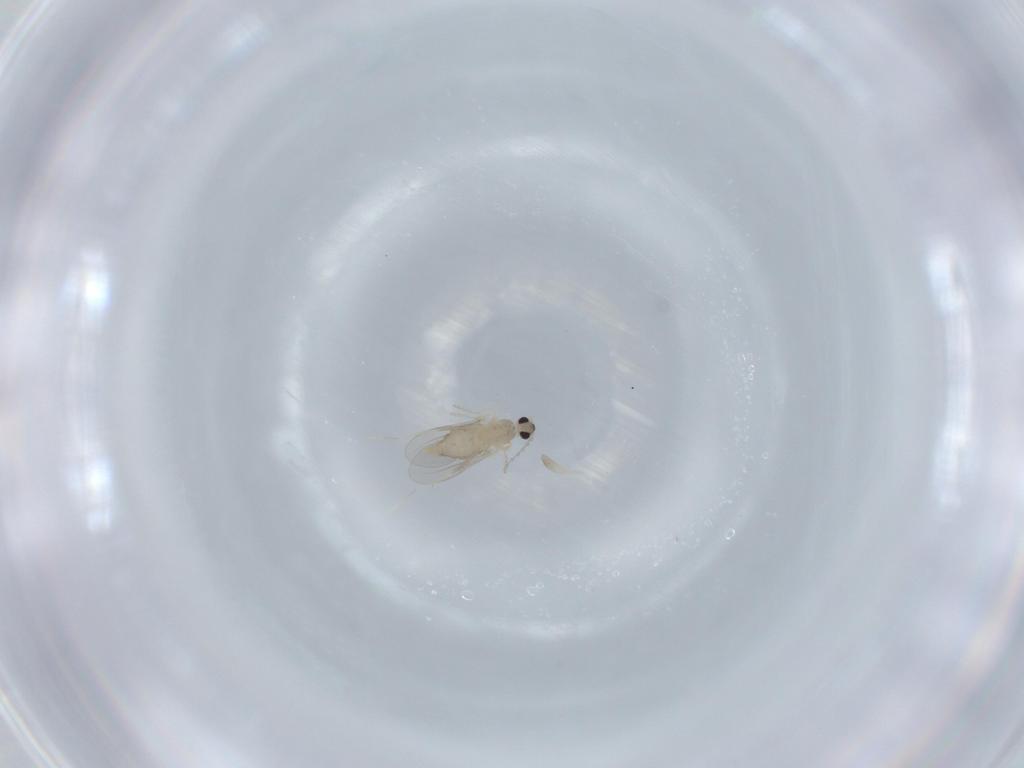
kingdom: Animalia
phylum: Arthropoda
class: Insecta
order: Diptera
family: Cecidomyiidae
